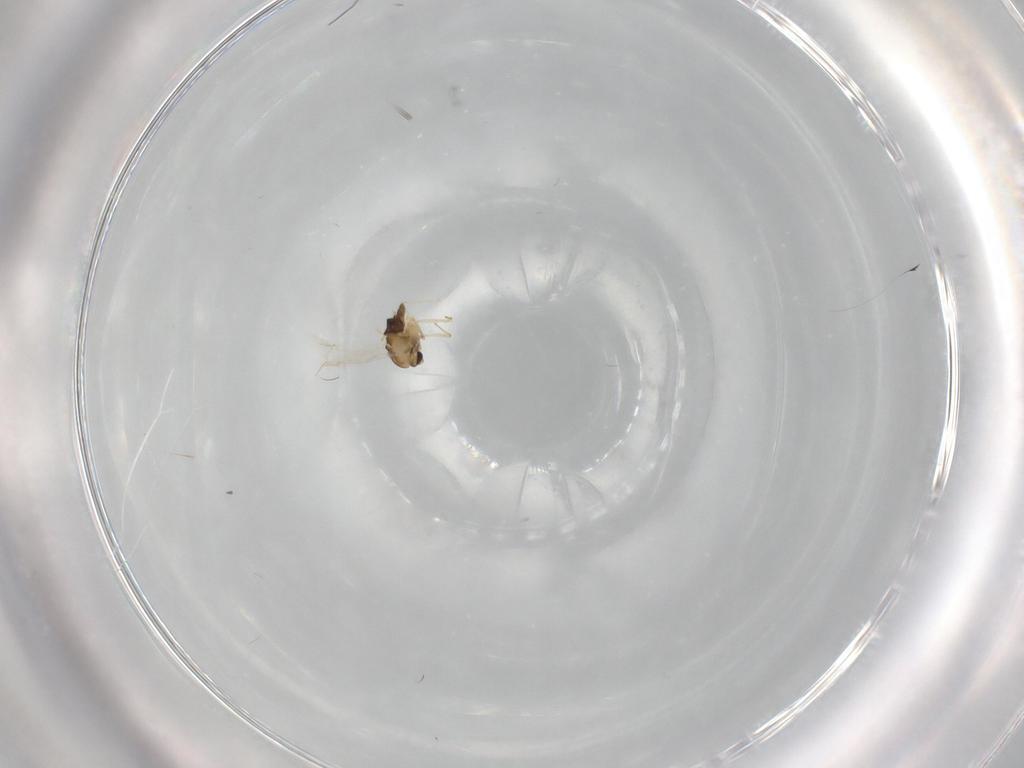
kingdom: Animalia
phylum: Arthropoda
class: Insecta
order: Diptera
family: Chironomidae
